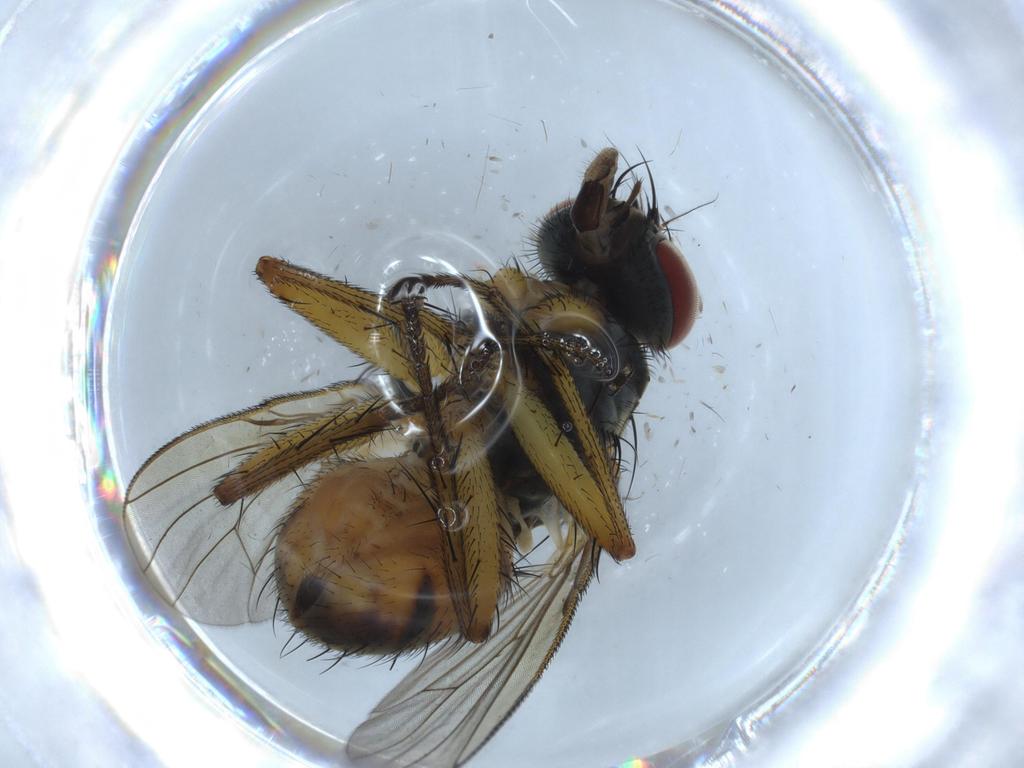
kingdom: Animalia
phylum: Arthropoda
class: Insecta
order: Diptera
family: Muscidae
